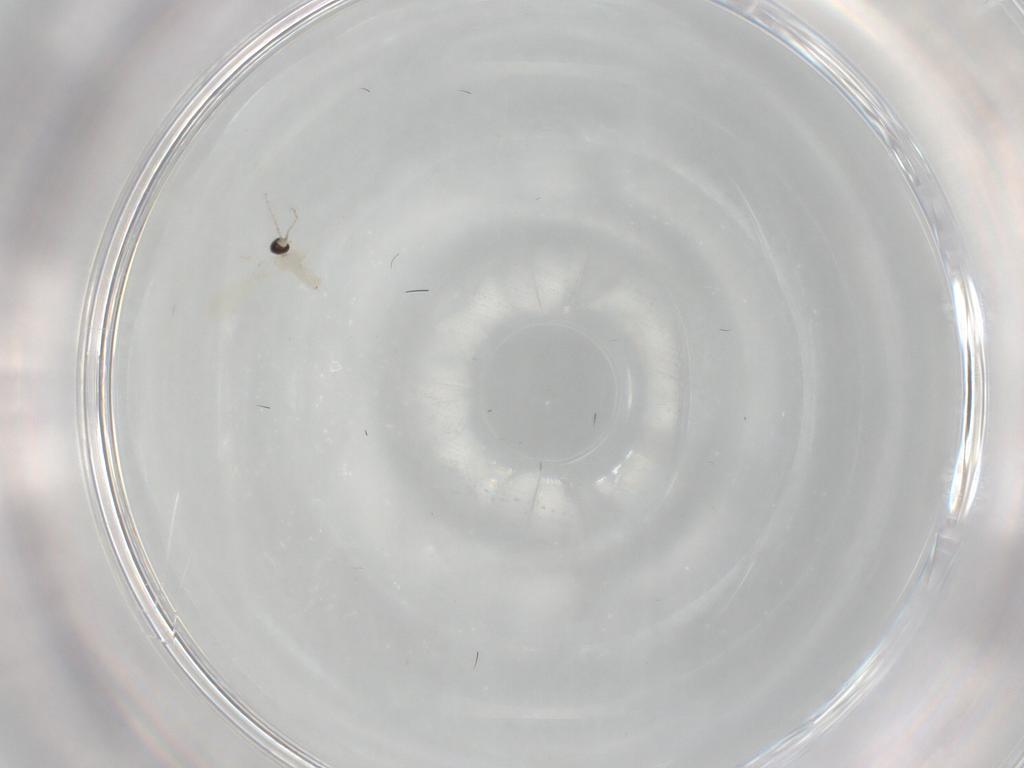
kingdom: Animalia
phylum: Arthropoda
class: Insecta
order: Diptera
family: Cecidomyiidae
